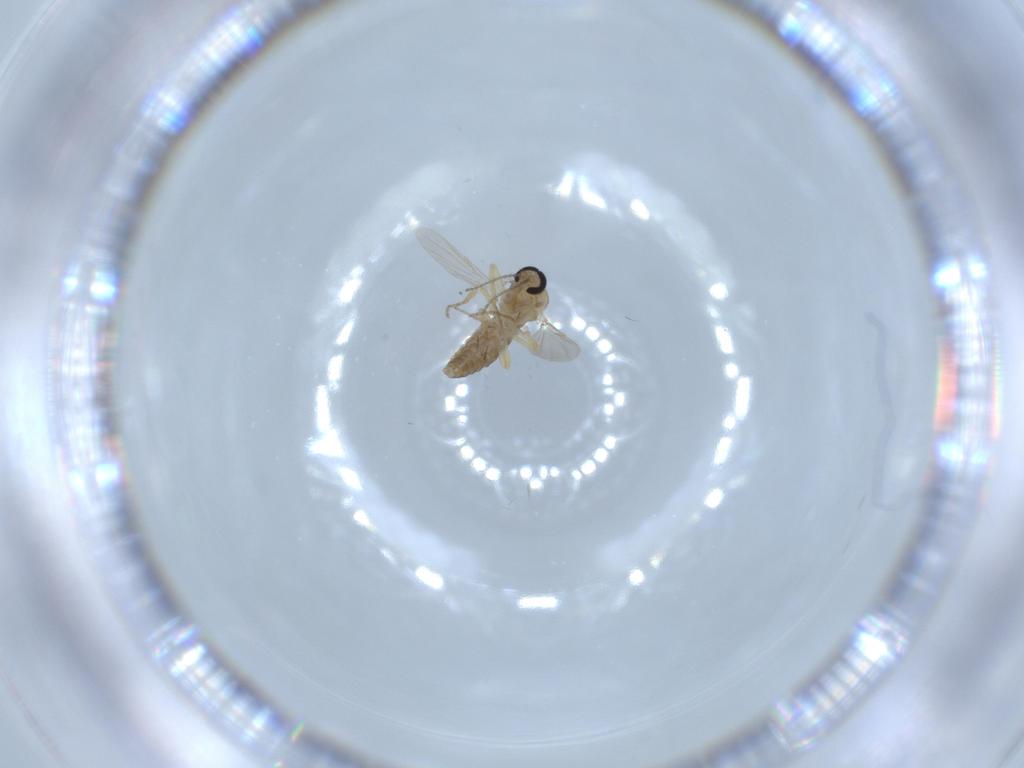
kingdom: Animalia
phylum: Arthropoda
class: Insecta
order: Diptera
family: Ceratopogonidae
